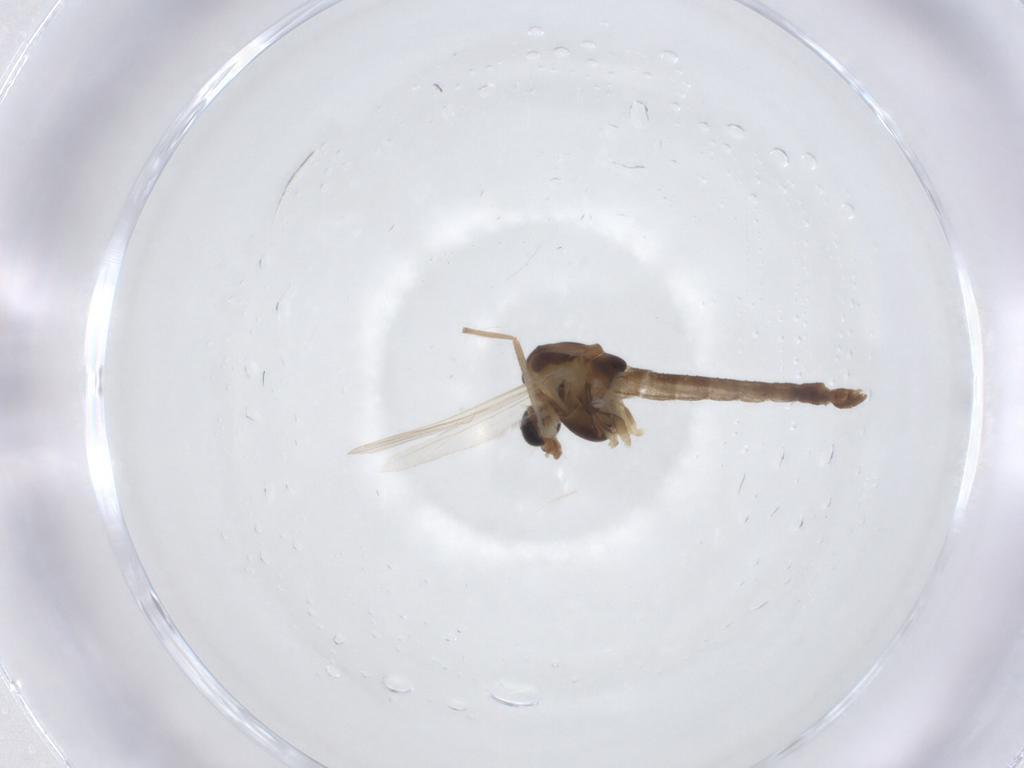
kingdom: Animalia
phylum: Arthropoda
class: Insecta
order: Diptera
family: Chironomidae
